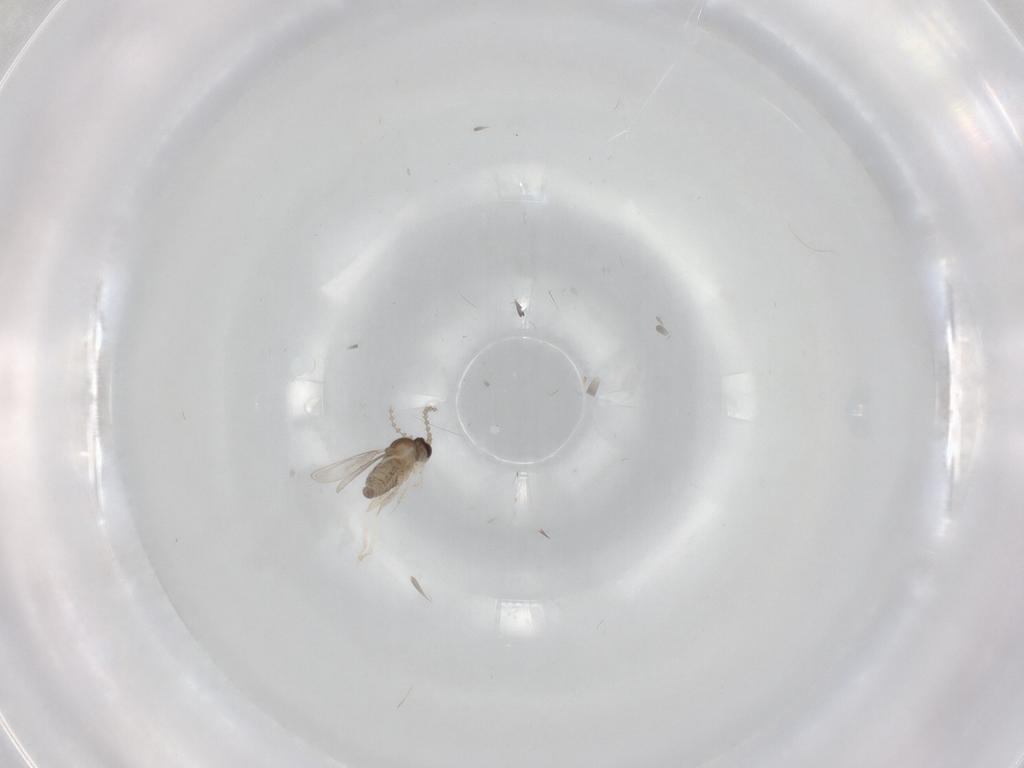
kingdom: Animalia
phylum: Arthropoda
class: Insecta
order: Diptera
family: Cecidomyiidae
